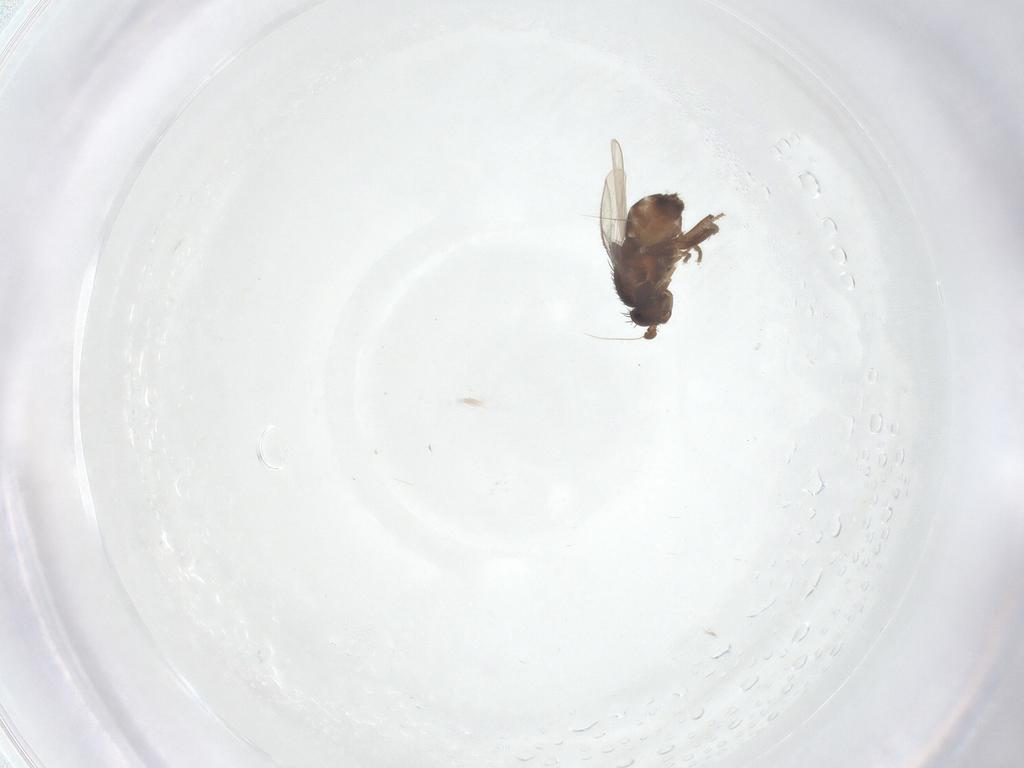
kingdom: Animalia
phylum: Arthropoda
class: Insecta
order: Diptera
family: Sphaeroceridae
